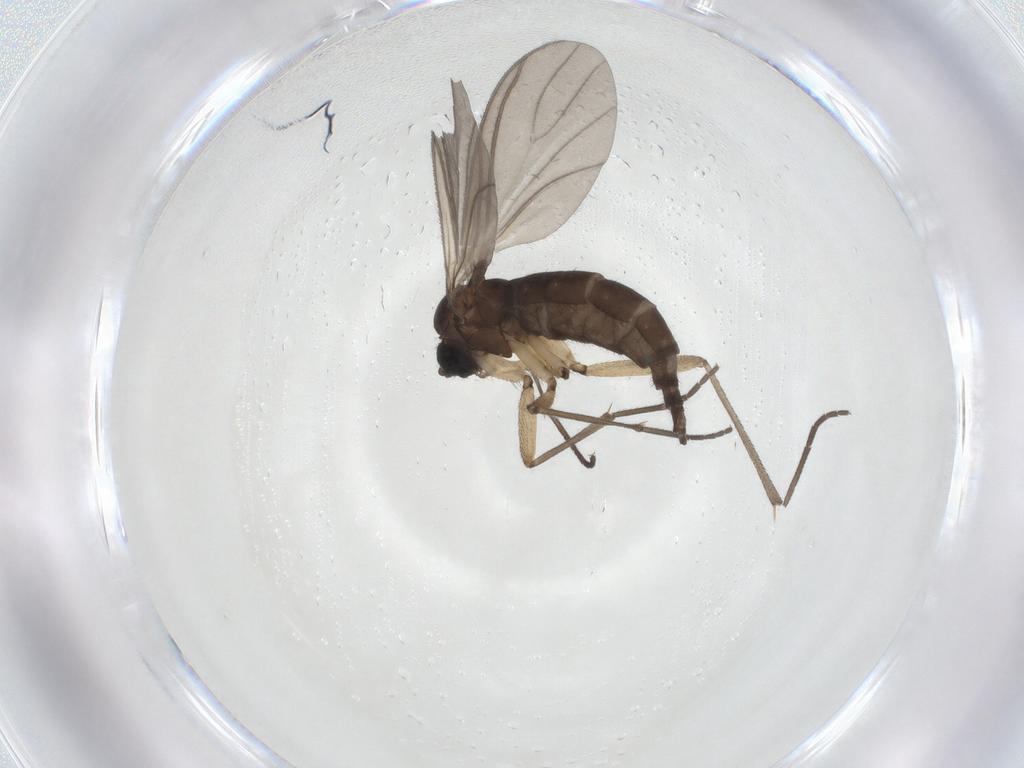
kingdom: Animalia
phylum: Arthropoda
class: Insecta
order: Diptera
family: Sciaridae
